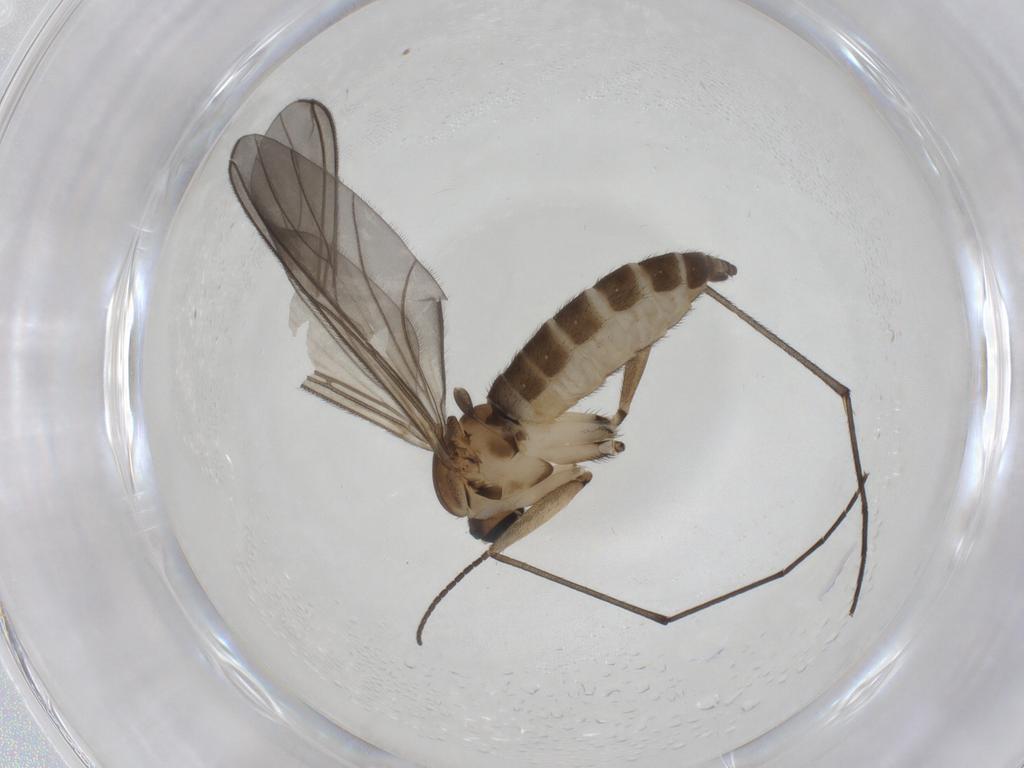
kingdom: Animalia
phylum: Arthropoda
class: Insecta
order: Diptera
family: Sciaridae
